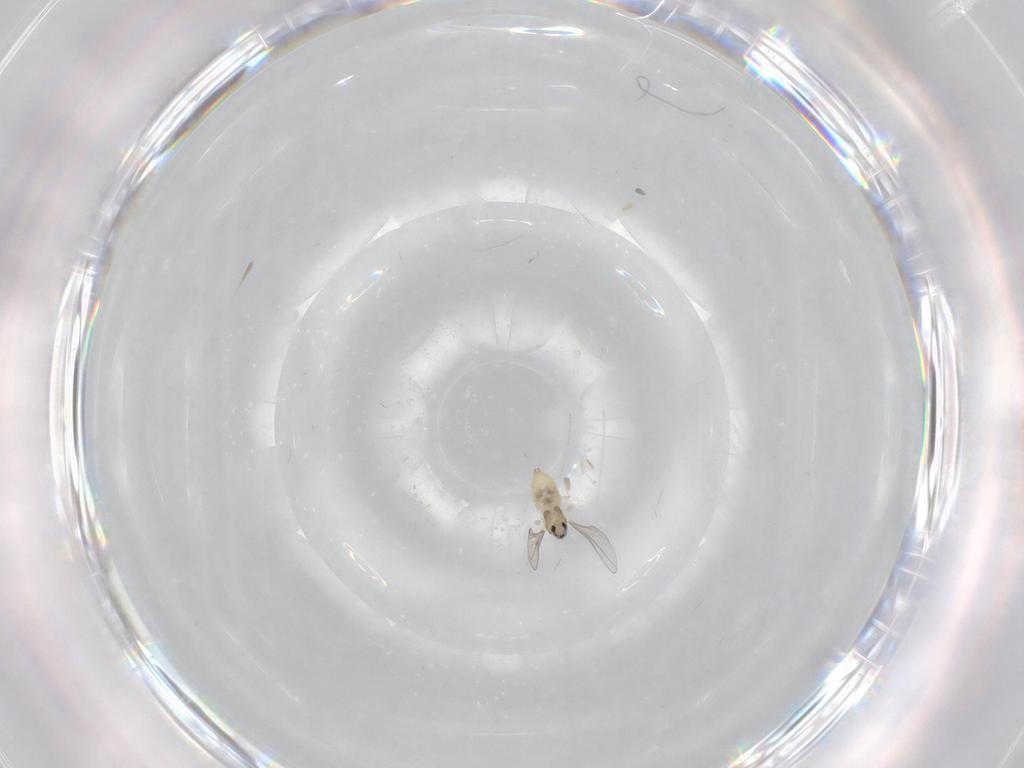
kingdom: Animalia
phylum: Arthropoda
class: Insecta
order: Diptera
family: Cecidomyiidae
